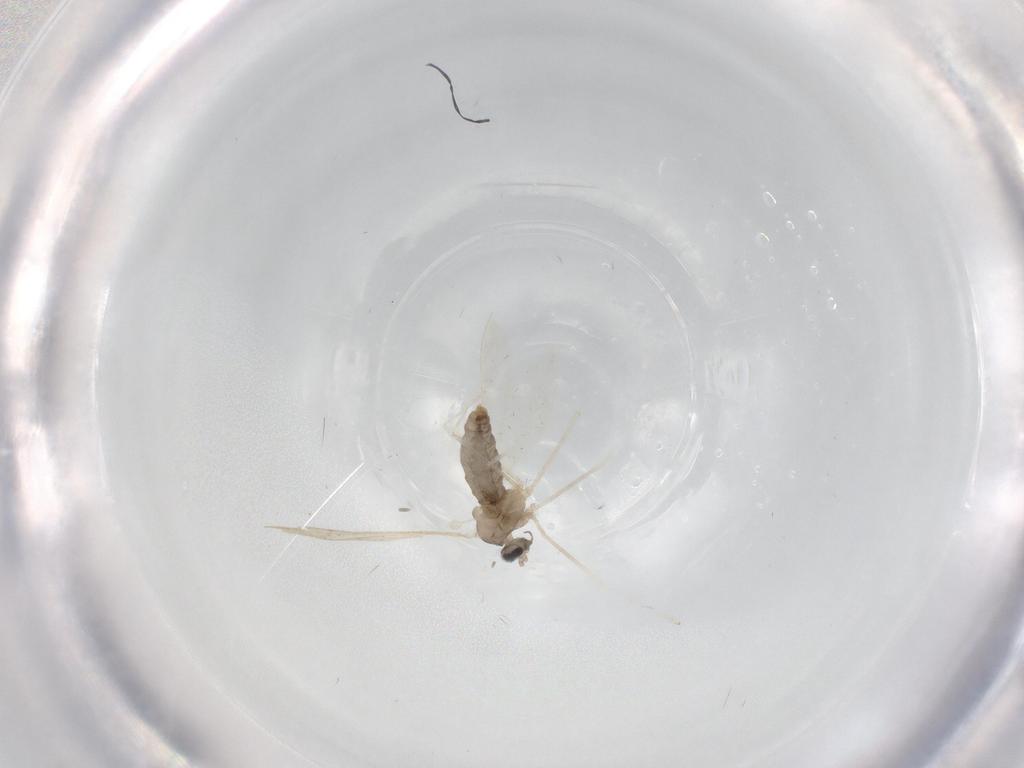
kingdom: Animalia
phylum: Arthropoda
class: Insecta
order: Diptera
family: Cecidomyiidae
